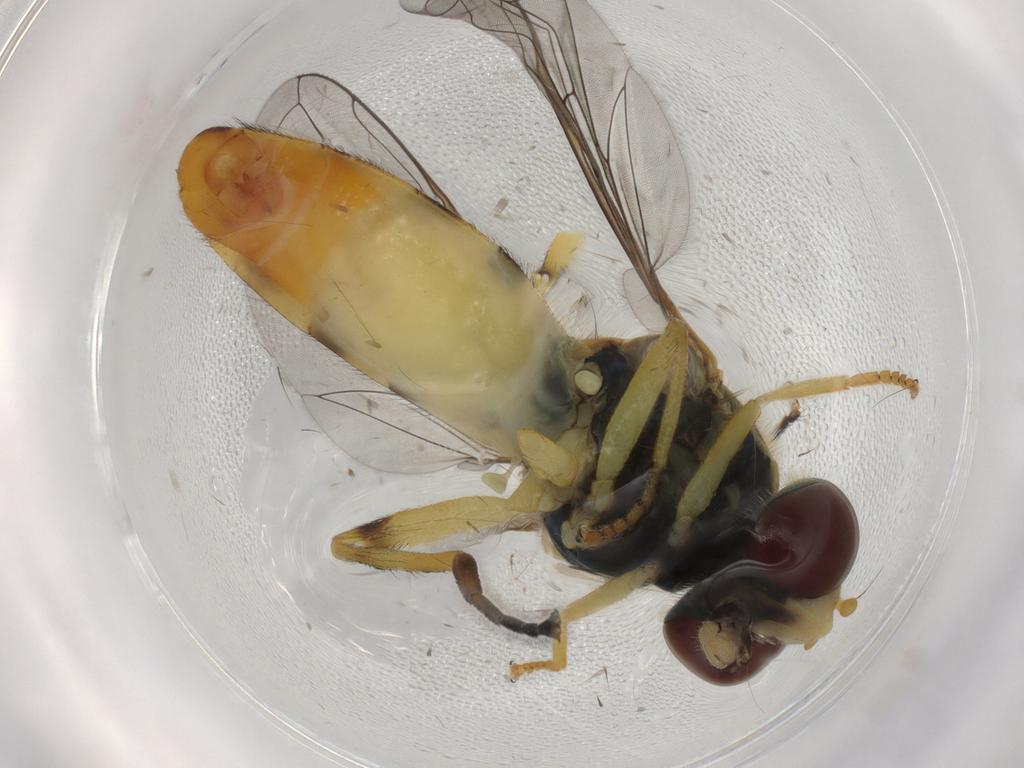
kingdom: Animalia
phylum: Arthropoda
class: Insecta
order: Diptera
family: Syrphidae
